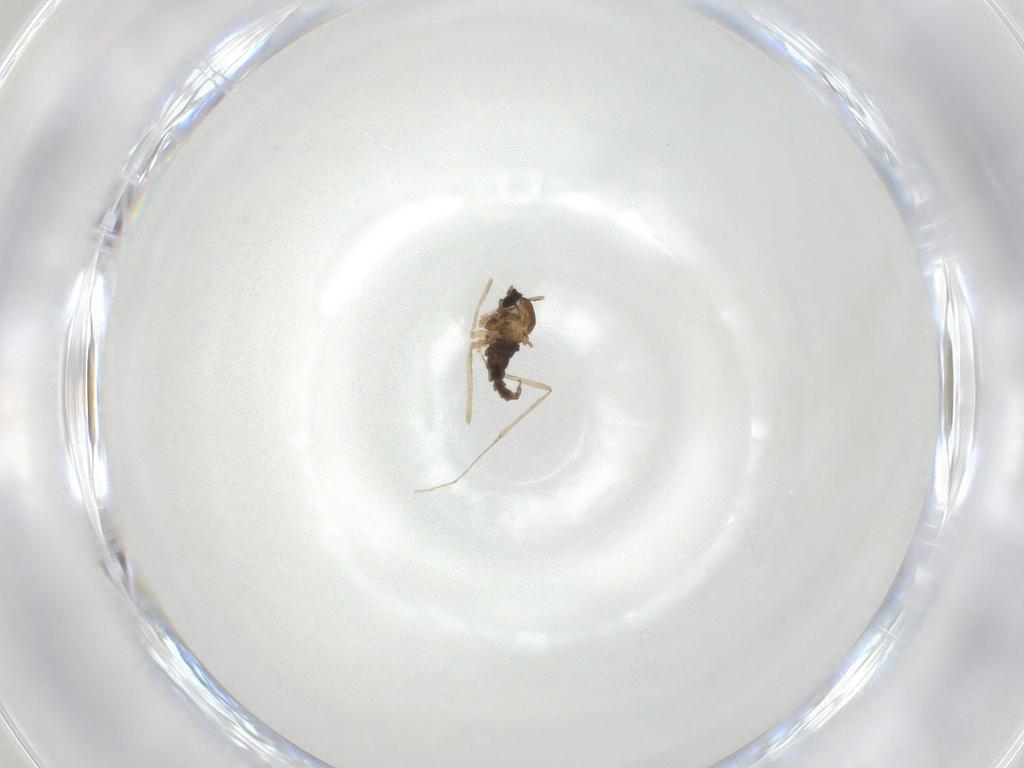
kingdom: Animalia
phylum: Arthropoda
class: Insecta
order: Diptera
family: Cecidomyiidae
